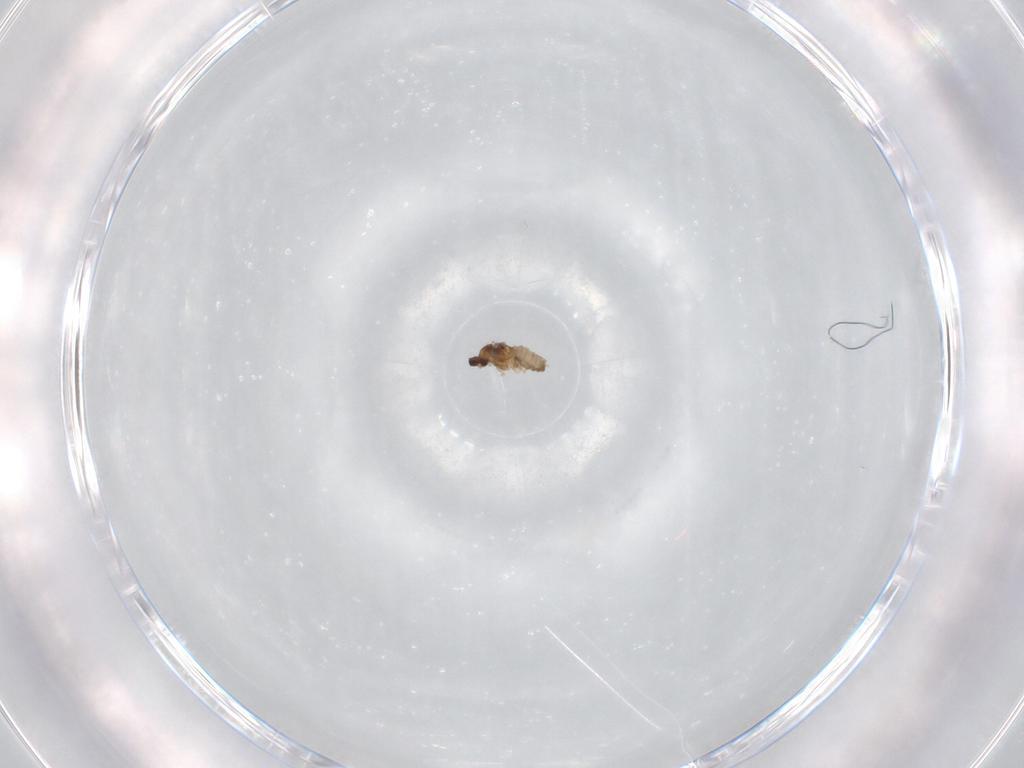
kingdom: Animalia
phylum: Arthropoda
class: Insecta
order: Diptera
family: Cecidomyiidae
